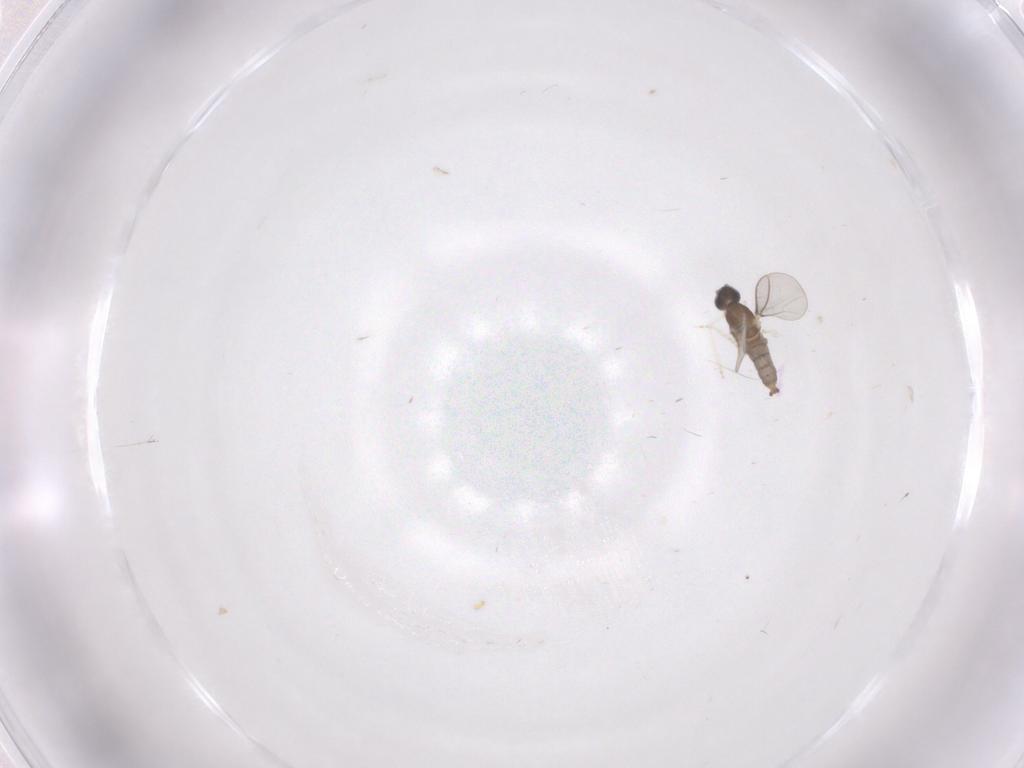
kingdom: Animalia
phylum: Arthropoda
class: Insecta
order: Diptera
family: Cecidomyiidae
